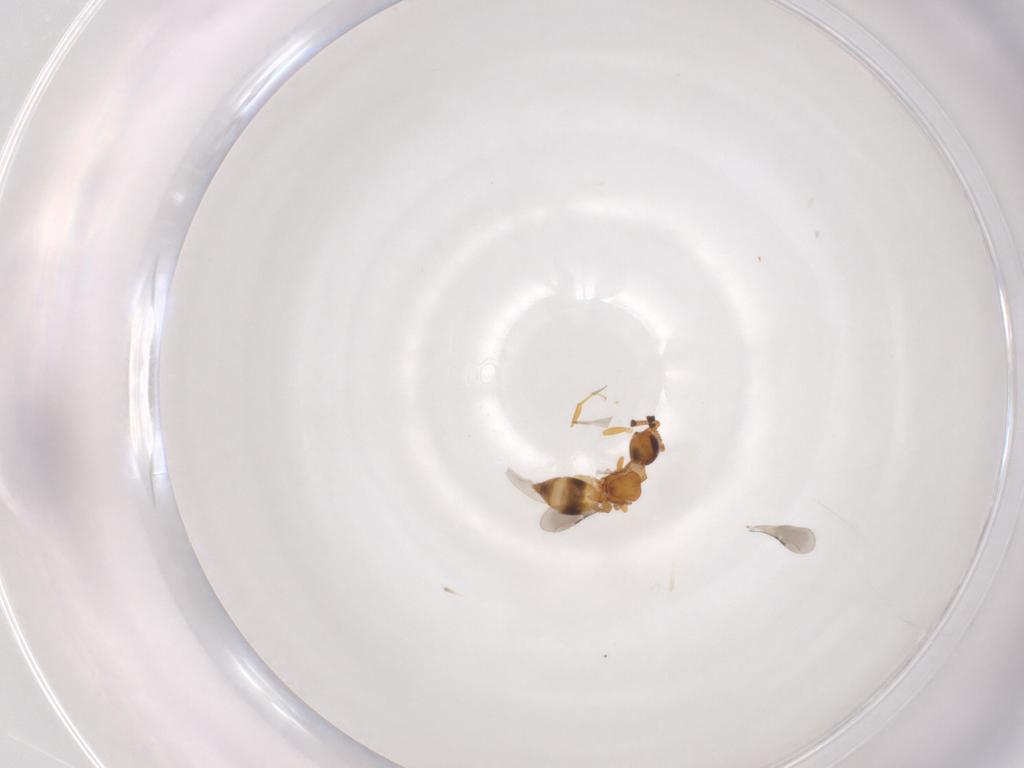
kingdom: Animalia
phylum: Arthropoda
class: Insecta
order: Hymenoptera
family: Ceraphronidae
